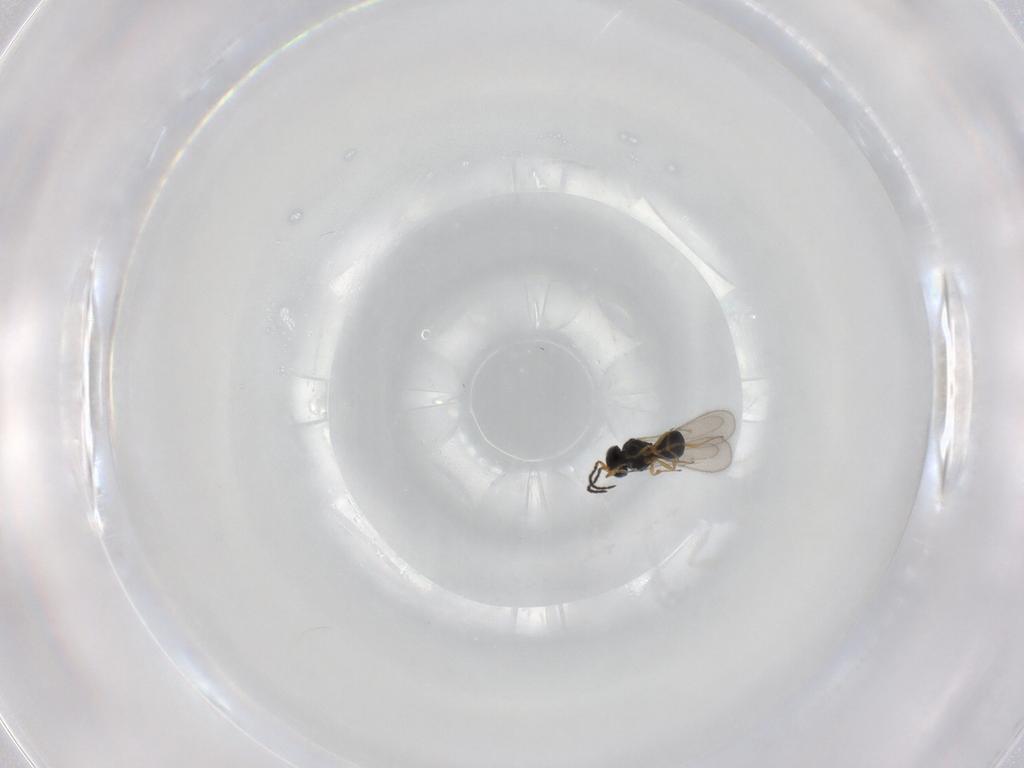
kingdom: Animalia
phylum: Arthropoda
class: Insecta
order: Hymenoptera
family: Scelionidae
